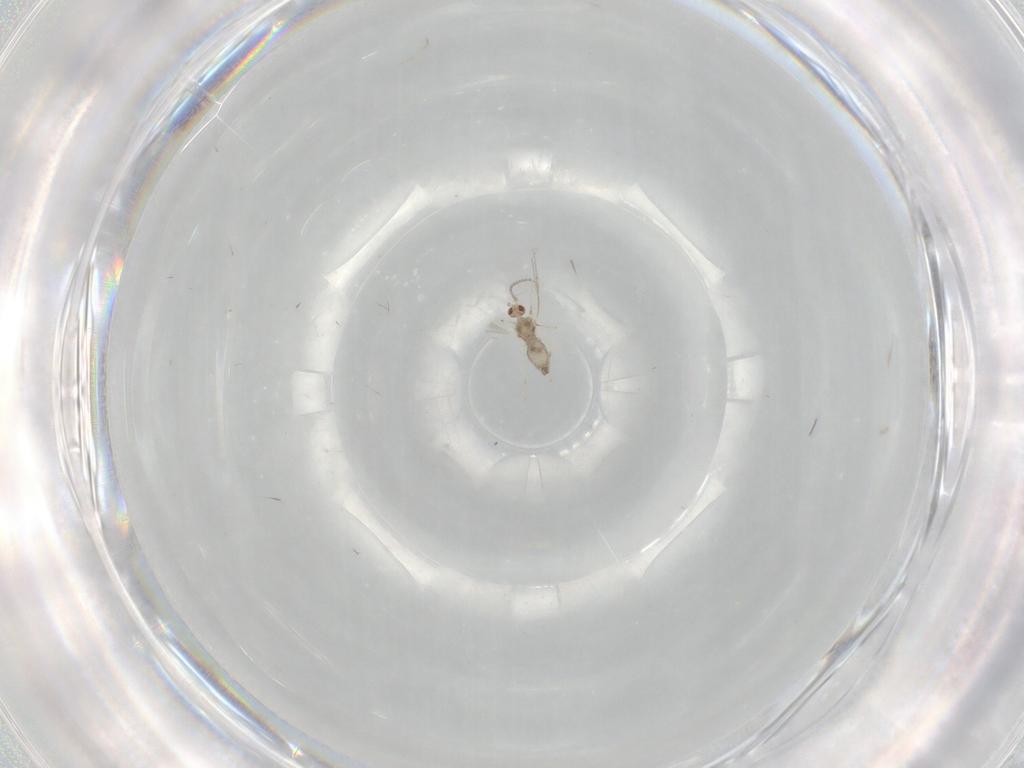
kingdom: Animalia
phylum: Arthropoda
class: Insecta
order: Diptera
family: Cecidomyiidae
